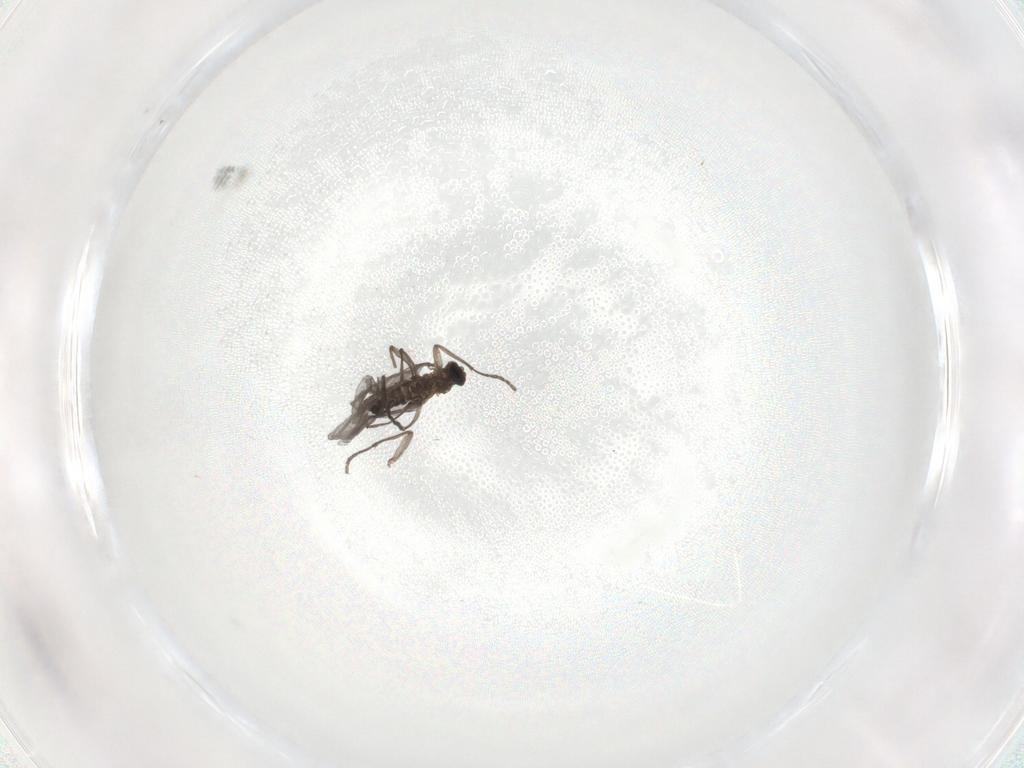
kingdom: Animalia
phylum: Arthropoda
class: Insecta
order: Diptera
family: Sciaridae
